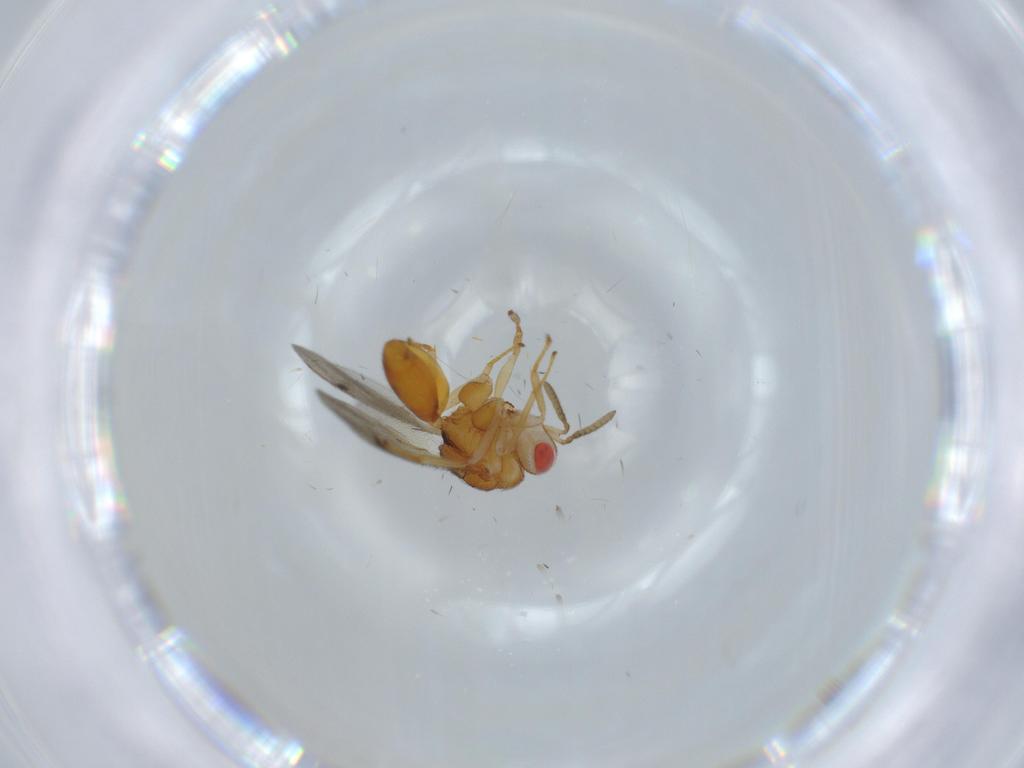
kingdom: Animalia
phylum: Arthropoda
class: Insecta
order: Hymenoptera
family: Eurytomidae
